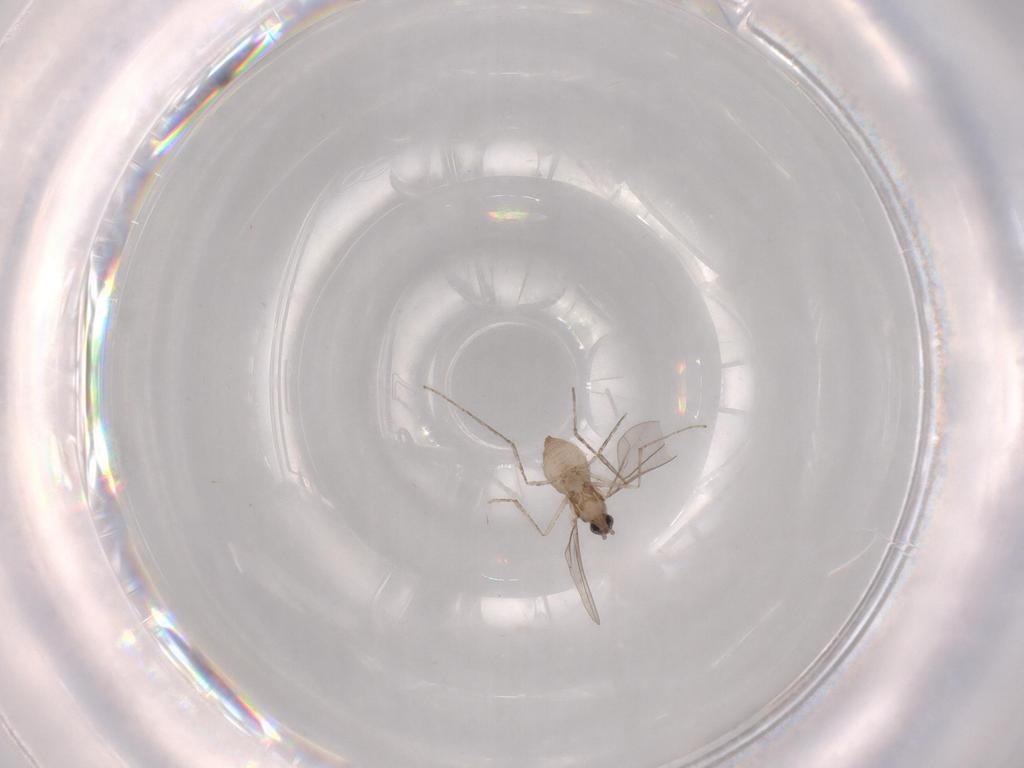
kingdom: Animalia
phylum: Arthropoda
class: Insecta
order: Diptera
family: Cecidomyiidae
